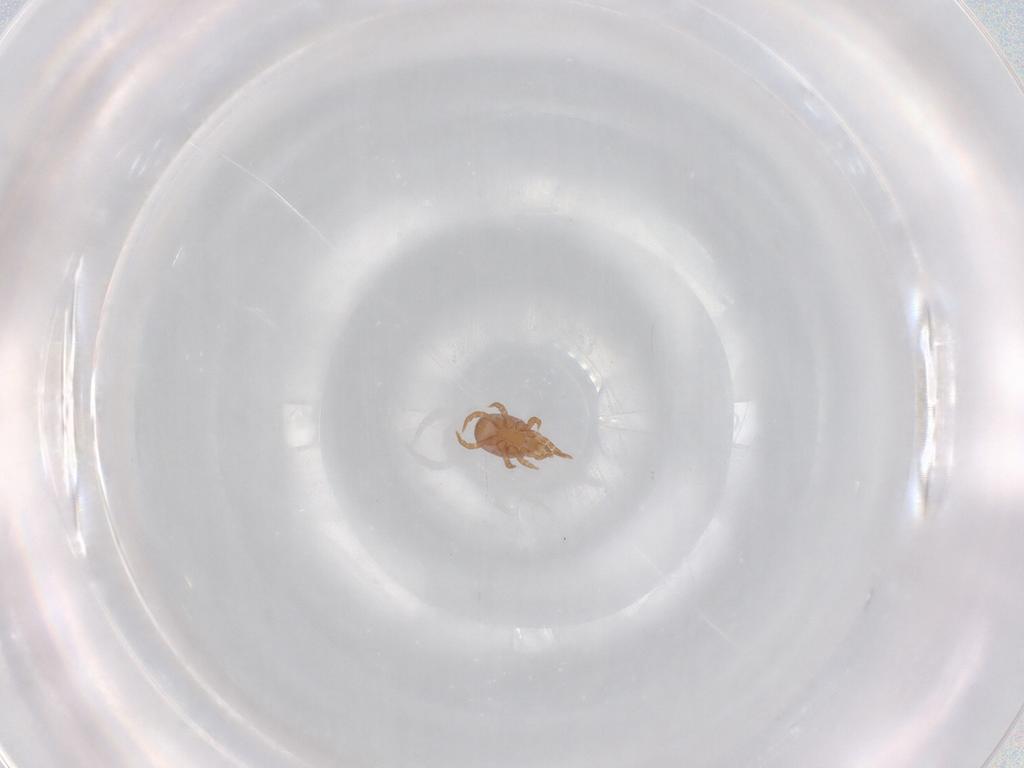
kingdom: Animalia
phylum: Arthropoda
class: Arachnida
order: Mesostigmata
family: Eviphididae
